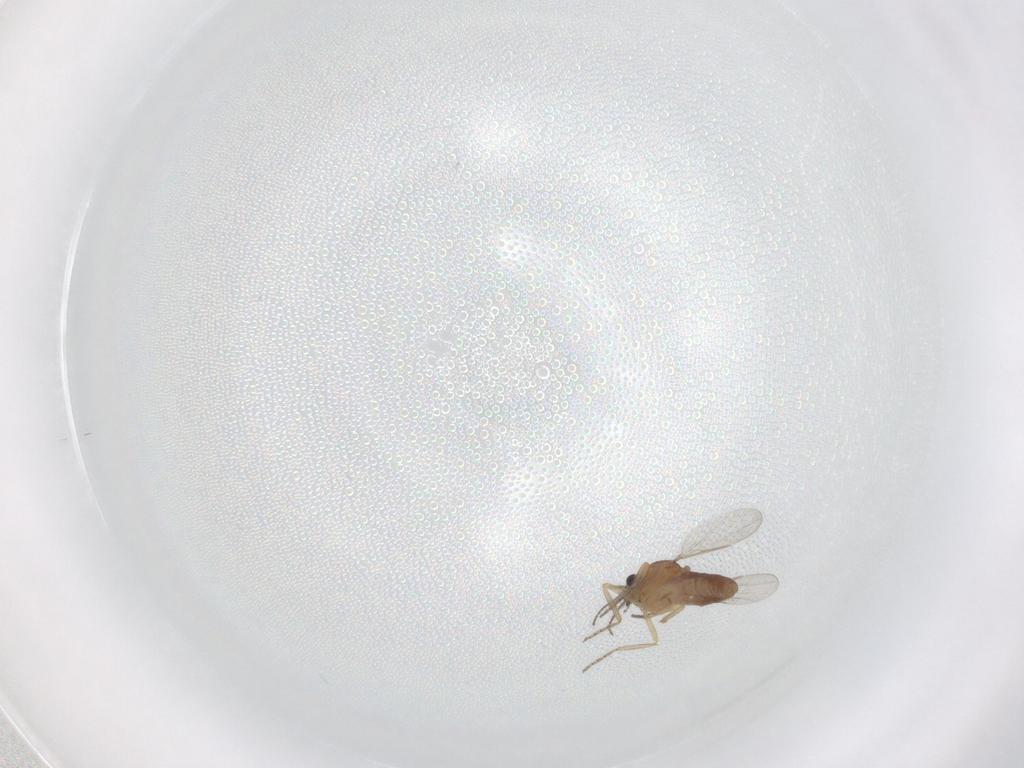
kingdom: Animalia
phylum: Arthropoda
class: Insecta
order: Diptera
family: Ceratopogonidae
